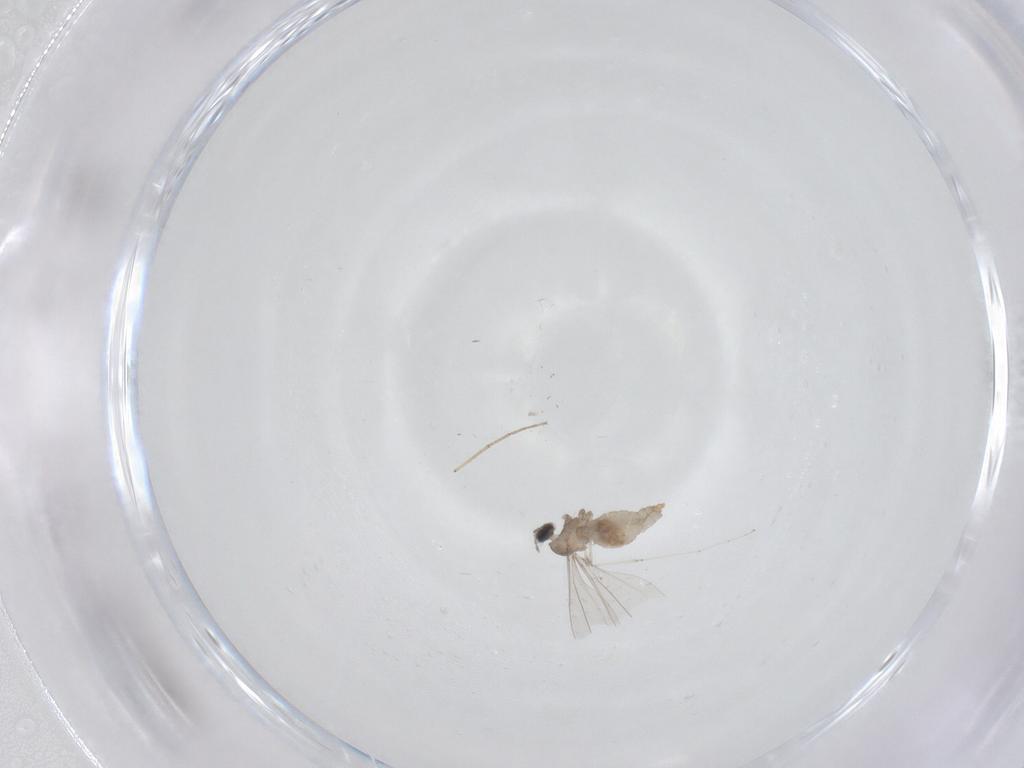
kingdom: Animalia
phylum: Arthropoda
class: Insecta
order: Diptera
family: Chironomidae
